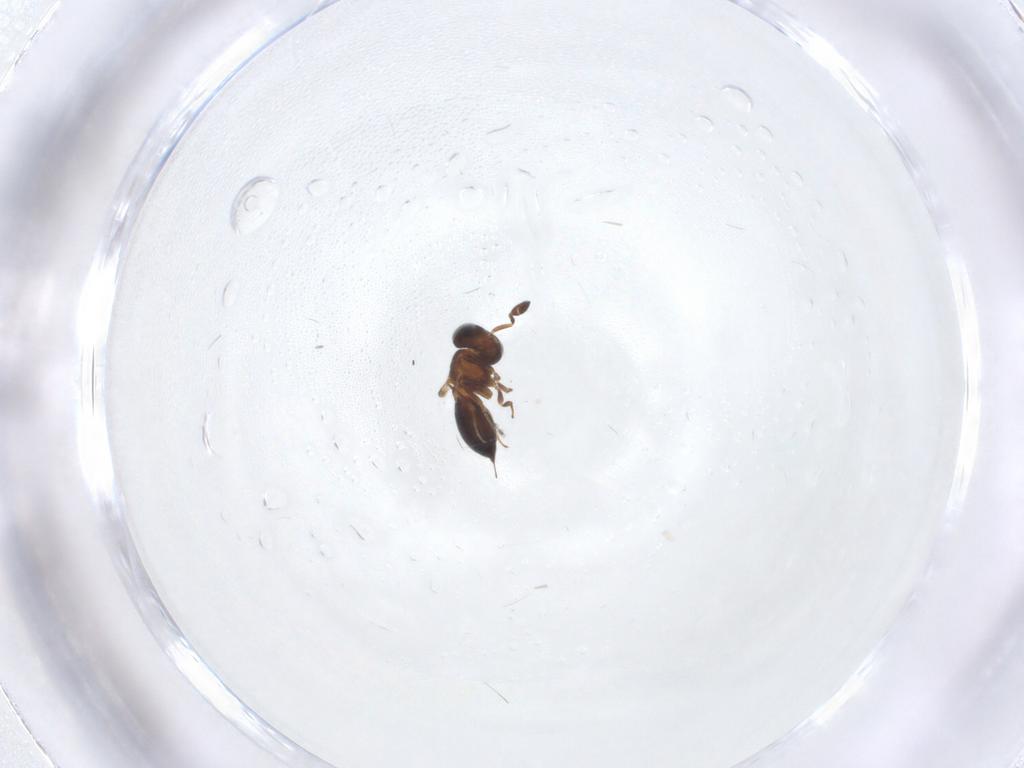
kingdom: Animalia
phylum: Arthropoda
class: Insecta
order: Hymenoptera
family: Scelionidae
